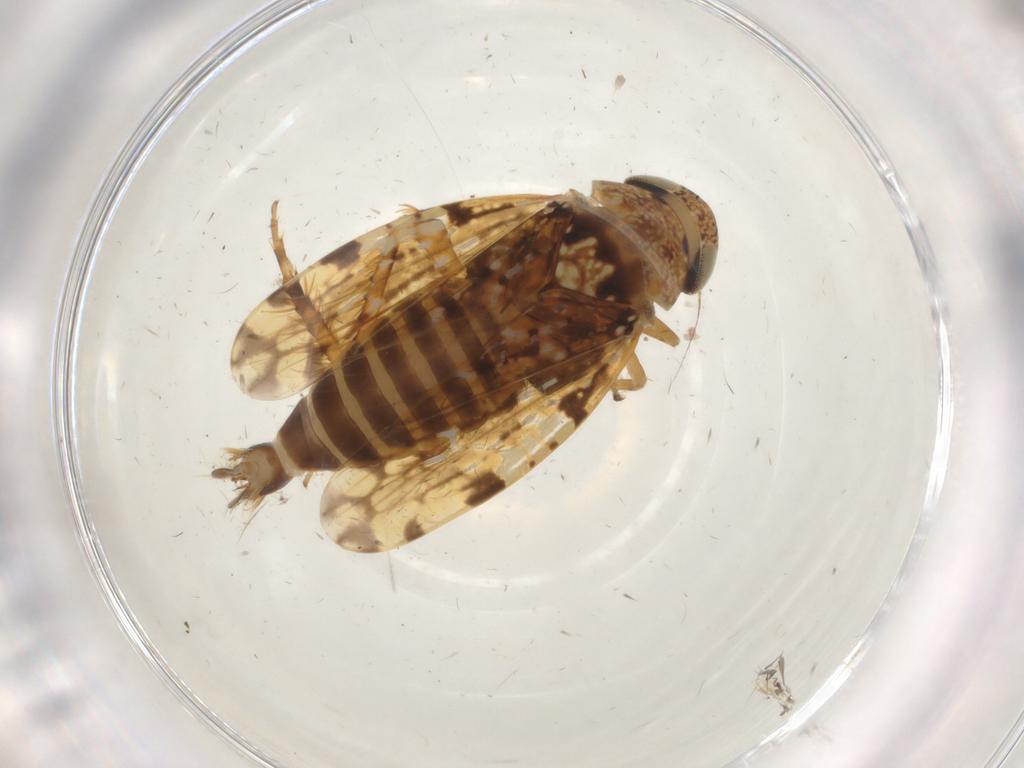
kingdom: Animalia
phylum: Arthropoda
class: Insecta
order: Hemiptera
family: Cicadellidae
